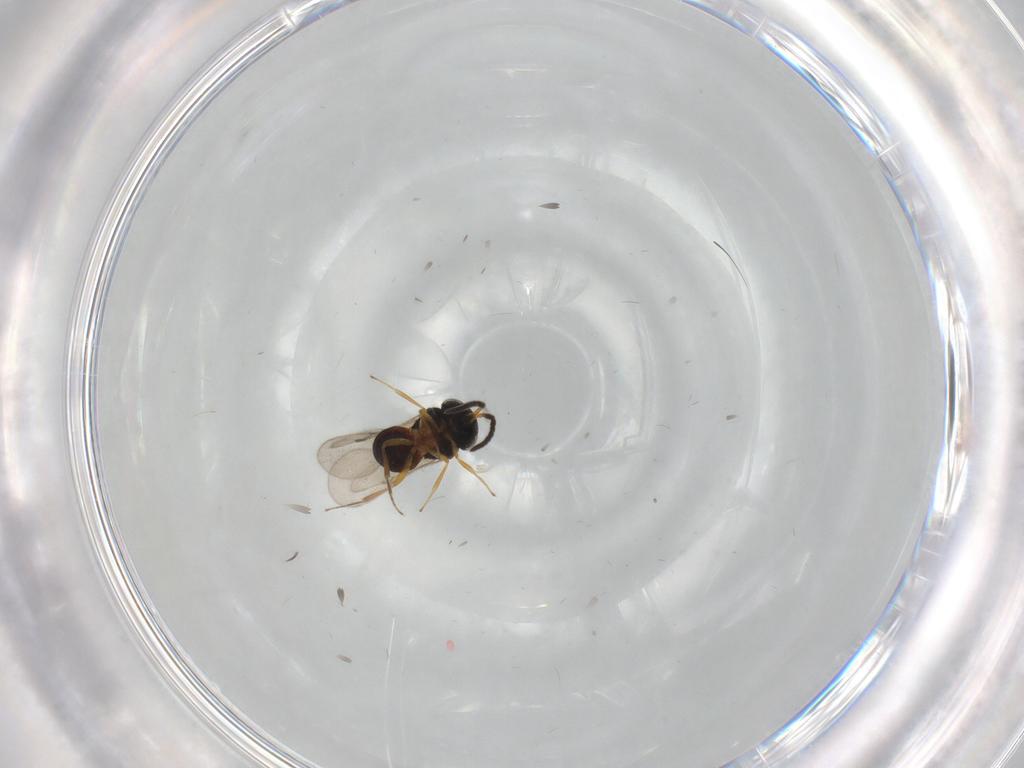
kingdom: Animalia
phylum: Arthropoda
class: Insecta
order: Hymenoptera
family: Scelionidae
